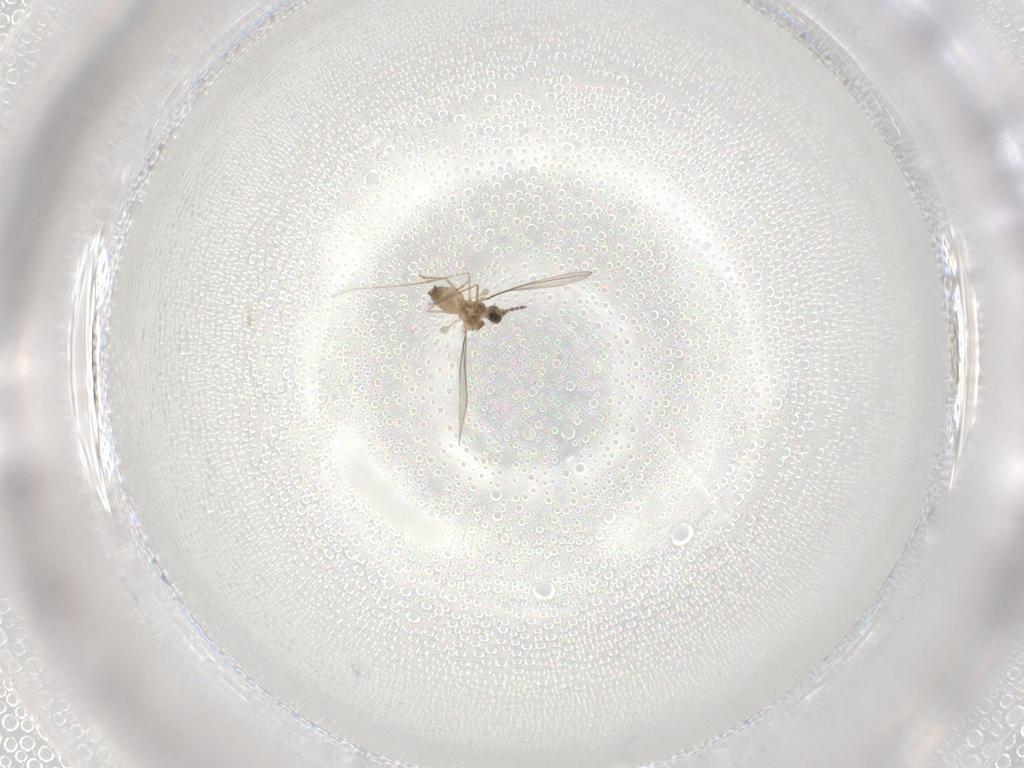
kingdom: Animalia
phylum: Arthropoda
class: Insecta
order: Diptera
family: Cecidomyiidae
